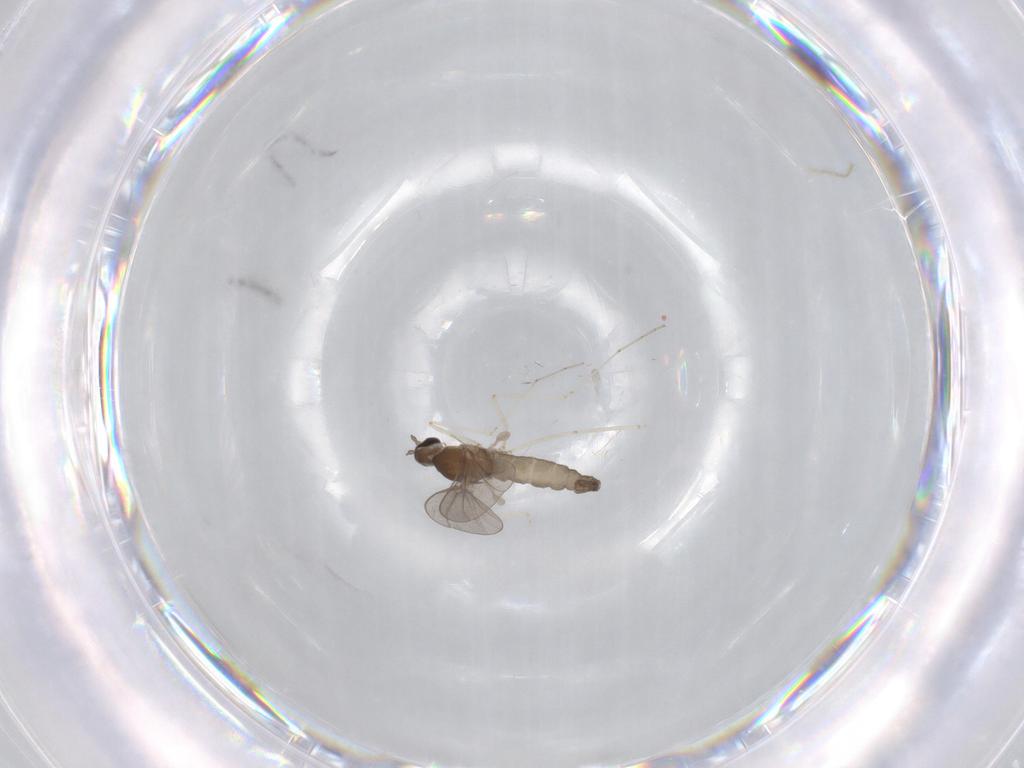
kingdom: Animalia
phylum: Arthropoda
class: Insecta
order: Diptera
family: Cecidomyiidae
